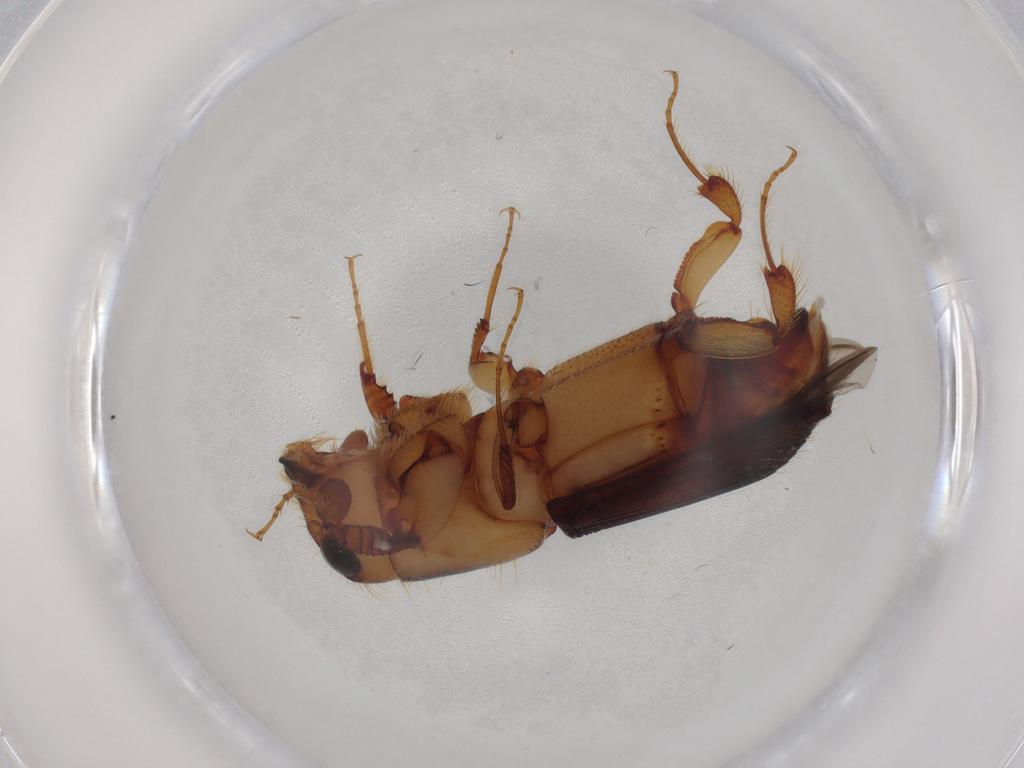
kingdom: Animalia
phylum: Arthropoda
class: Insecta
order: Coleoptera
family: Curculionidae
